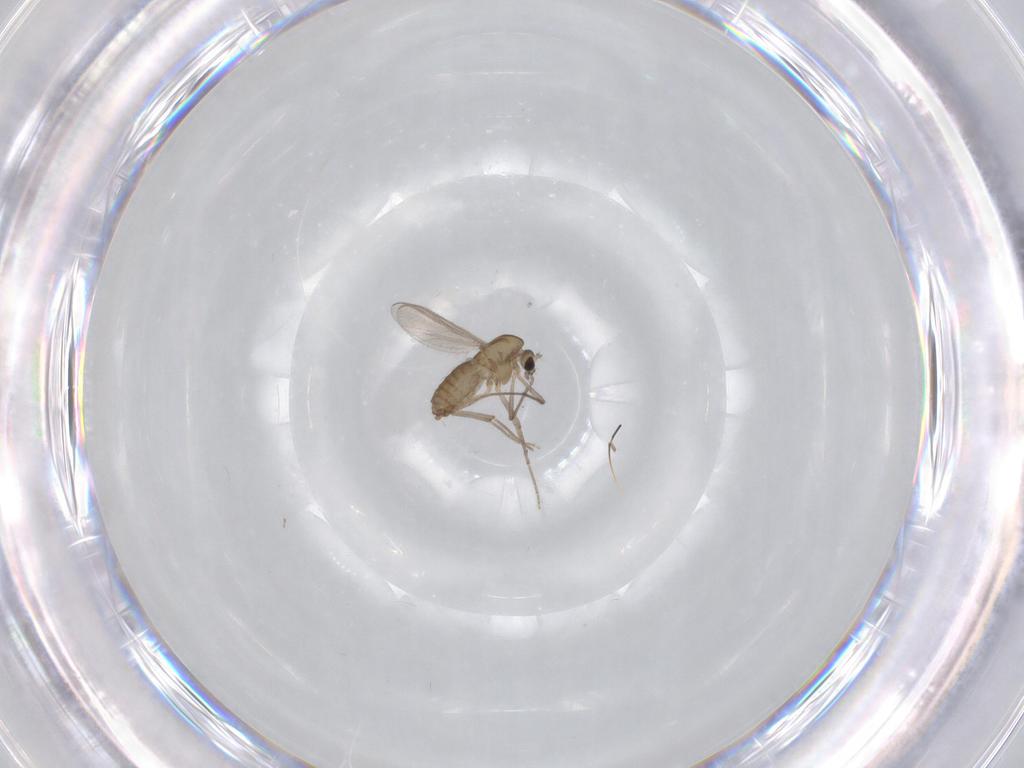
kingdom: Animalia
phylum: Arthropoda
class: Insecta
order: Diptera
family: Chironomidae
